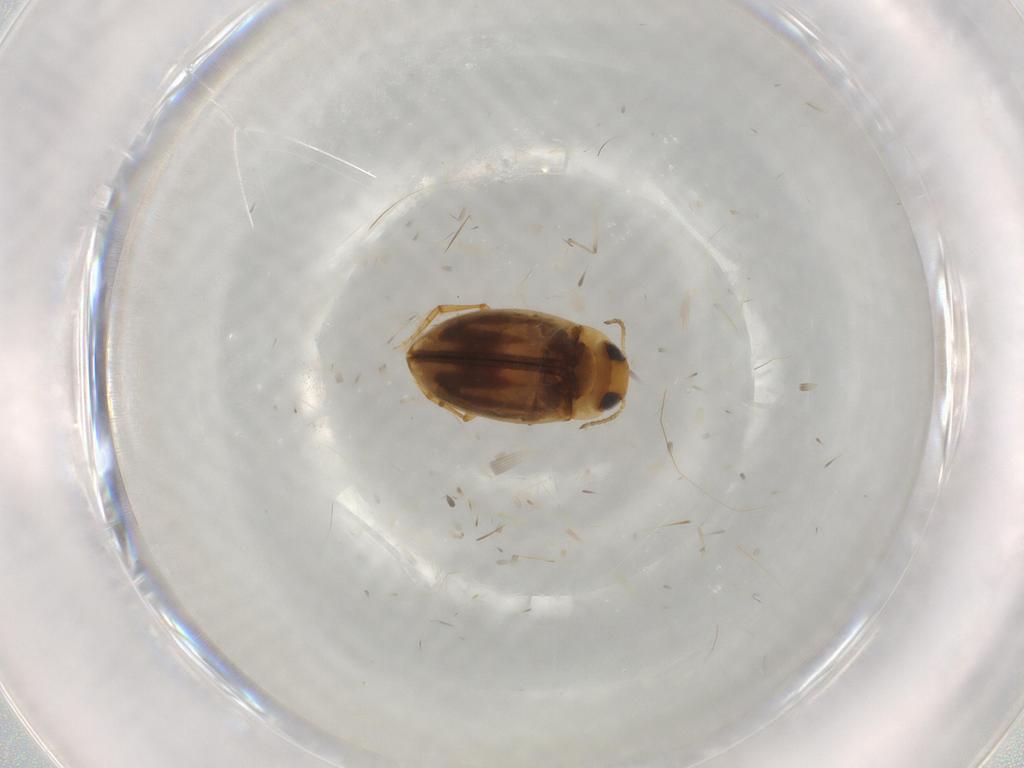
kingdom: Animalia
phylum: Arthropoda
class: Insecta
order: Coleoptera
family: Dytiscidae
